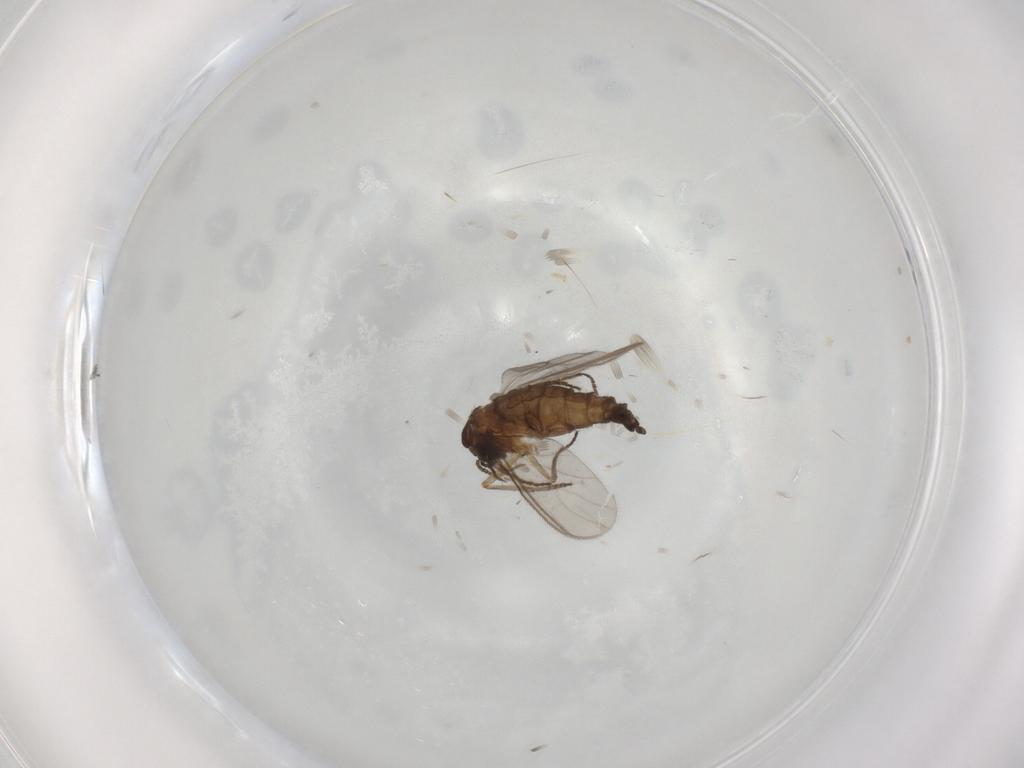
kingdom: Animalia
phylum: Arthropoda
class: Insecta
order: Diptera
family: Sciaridae
